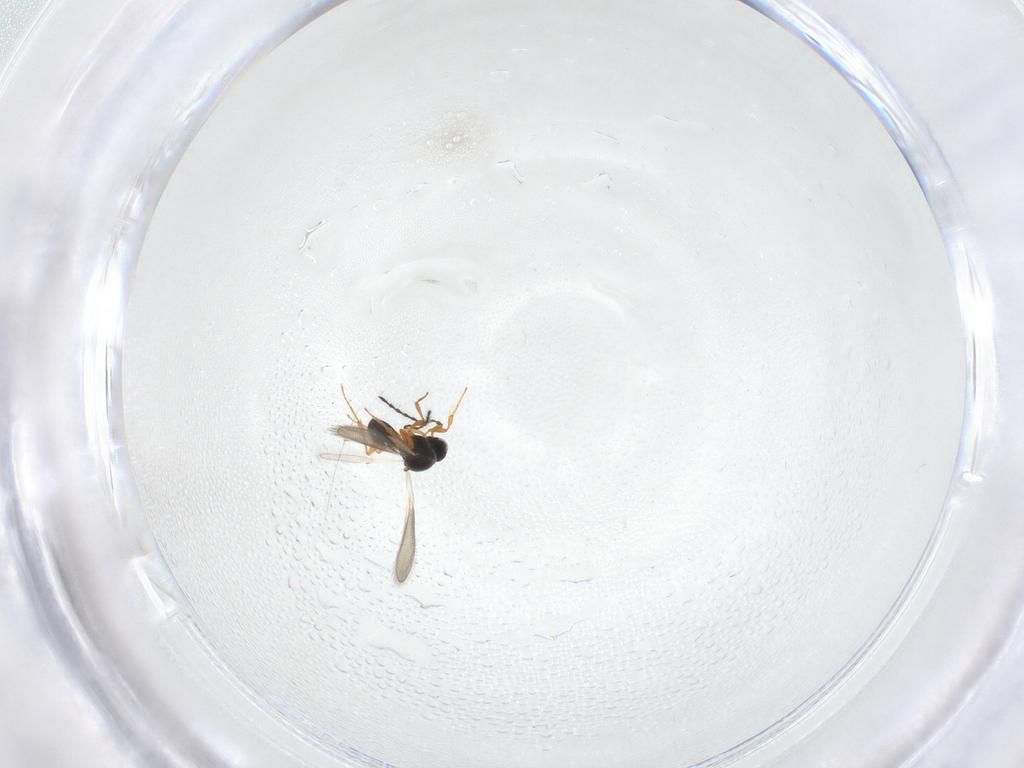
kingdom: Animalia
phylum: Arthropoda
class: Insecta
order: Hymenoptera
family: Platygastridae
